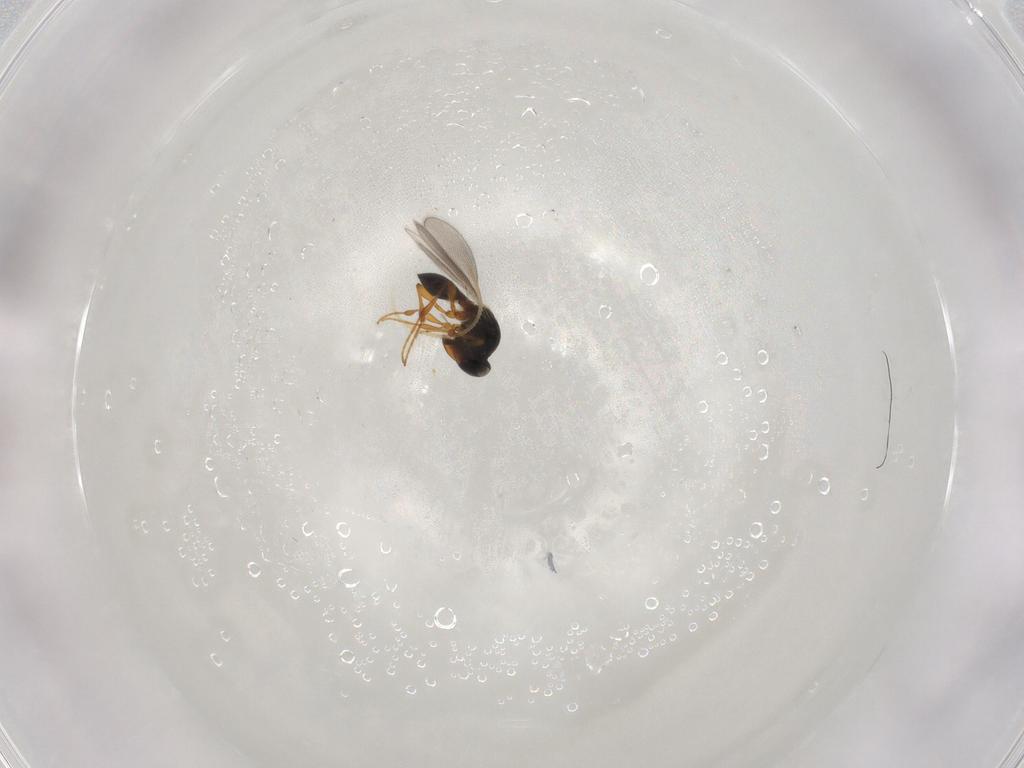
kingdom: Animalia
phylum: Arthropoda
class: Insecta
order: Hymenoptera
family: Platygastridae
